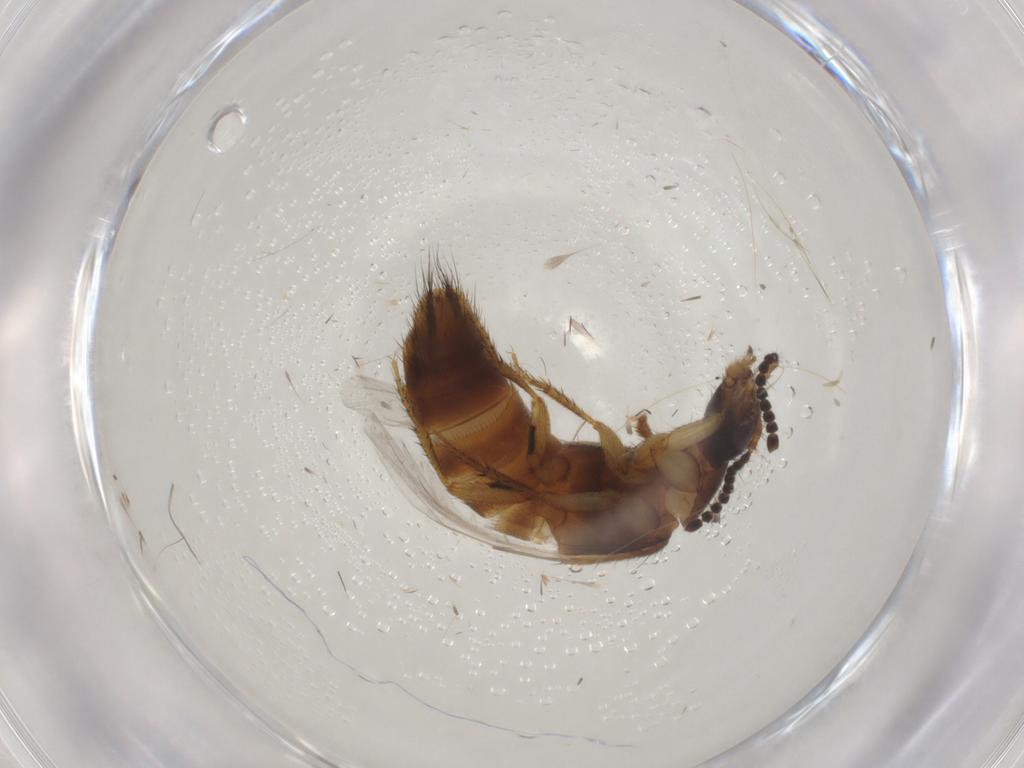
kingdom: Animalia
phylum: Arthropoda
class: Insecta
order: Coleoptera
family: Staphylinidae
